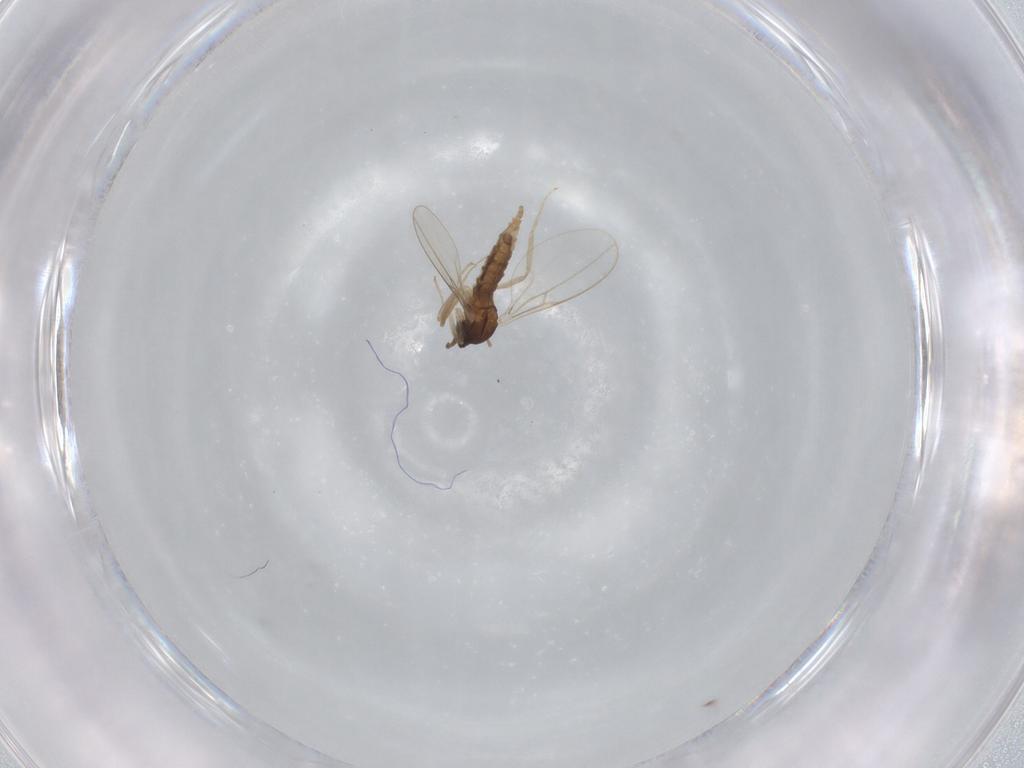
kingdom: Animalia
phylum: Arthropoda
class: Insecta
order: Diptera
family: Cecidomyiidae
